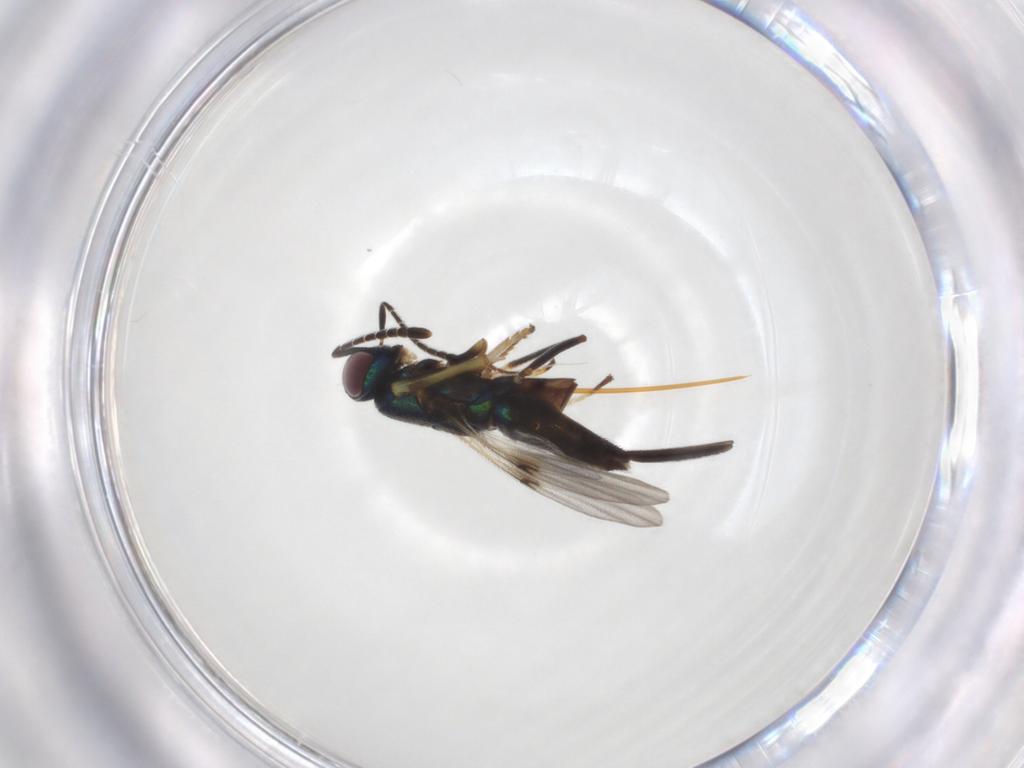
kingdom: Animalia
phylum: Arthropoda
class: Insecta
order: Hymenoptera
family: Encyrtidae
